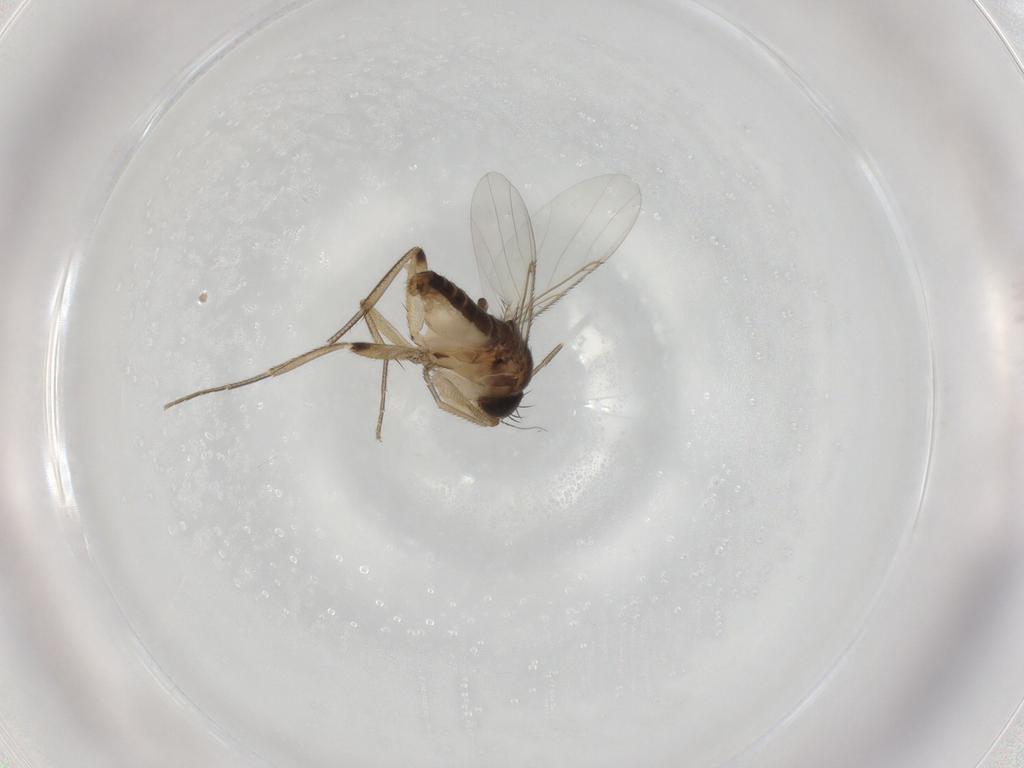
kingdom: Animalia
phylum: Arthropoda
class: Insecta
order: Diptera
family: Phoridae
